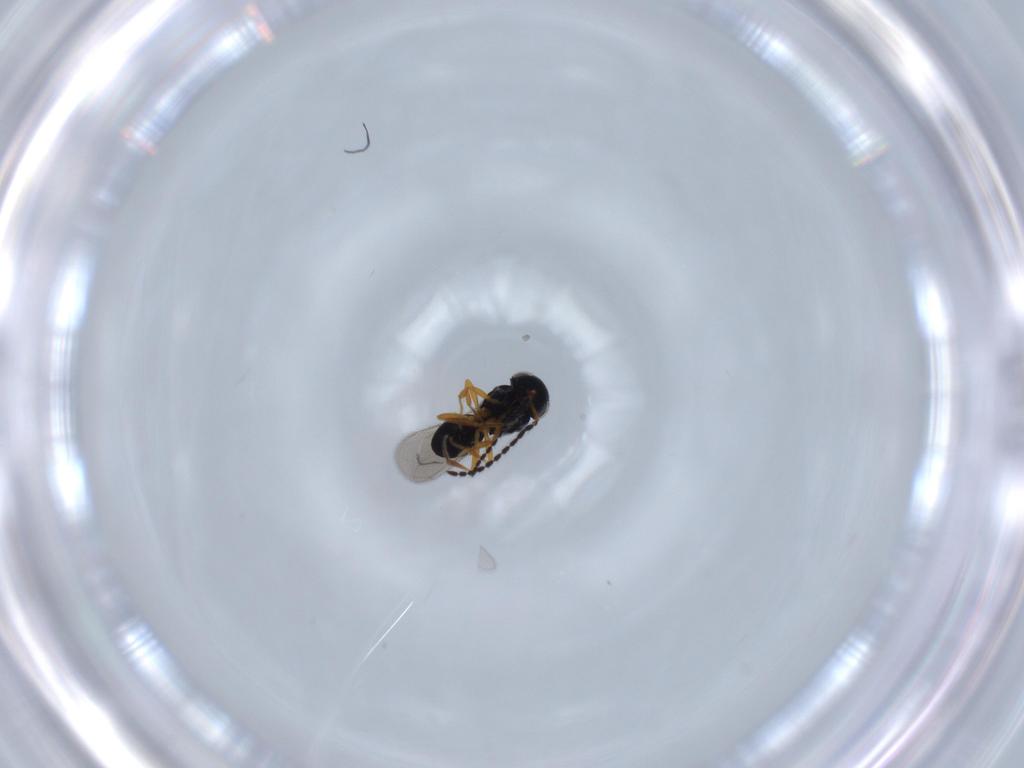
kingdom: Animalia
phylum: Arthropoda
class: Insecta
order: Hymenoptera
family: Scelionidae
